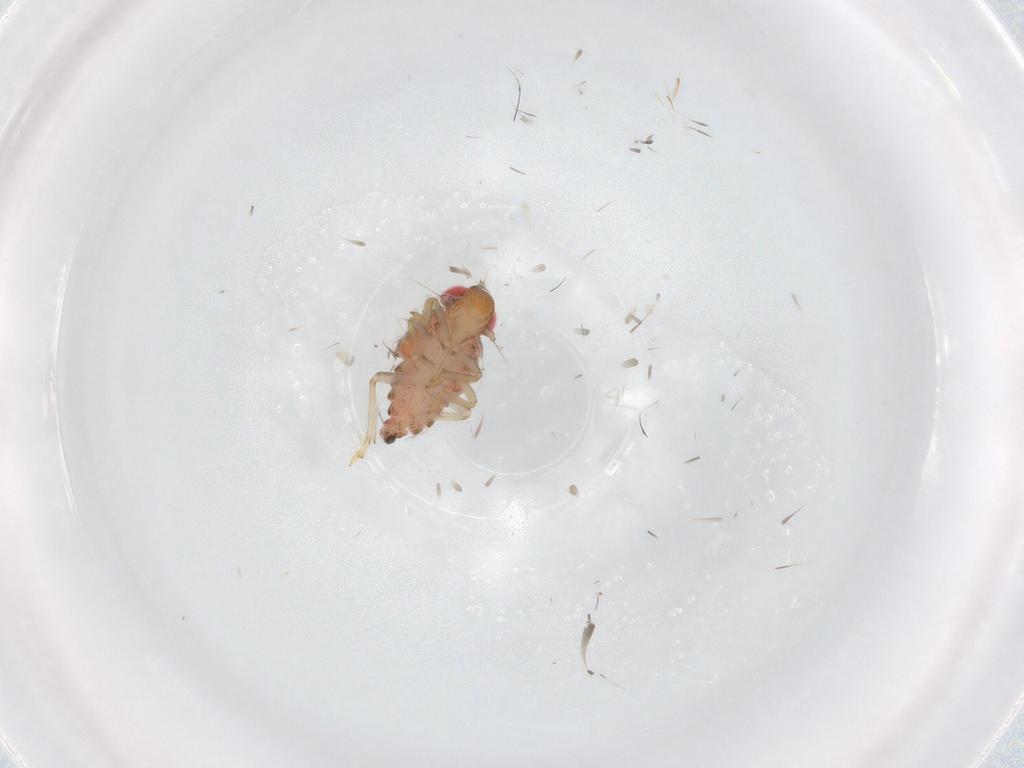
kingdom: Animalia
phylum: Arthropoda
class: Insecta
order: Hemiptera
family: Issidae
